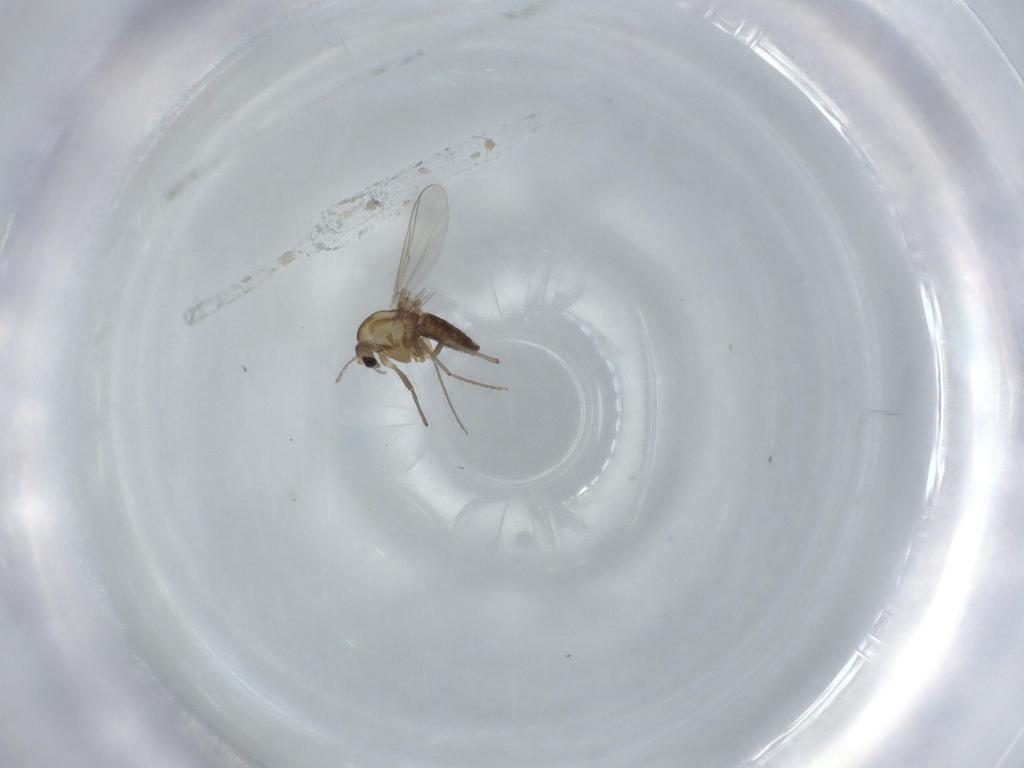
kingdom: Animalia
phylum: Arthropoda
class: Insecta
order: Diptera
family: Chironomidae
